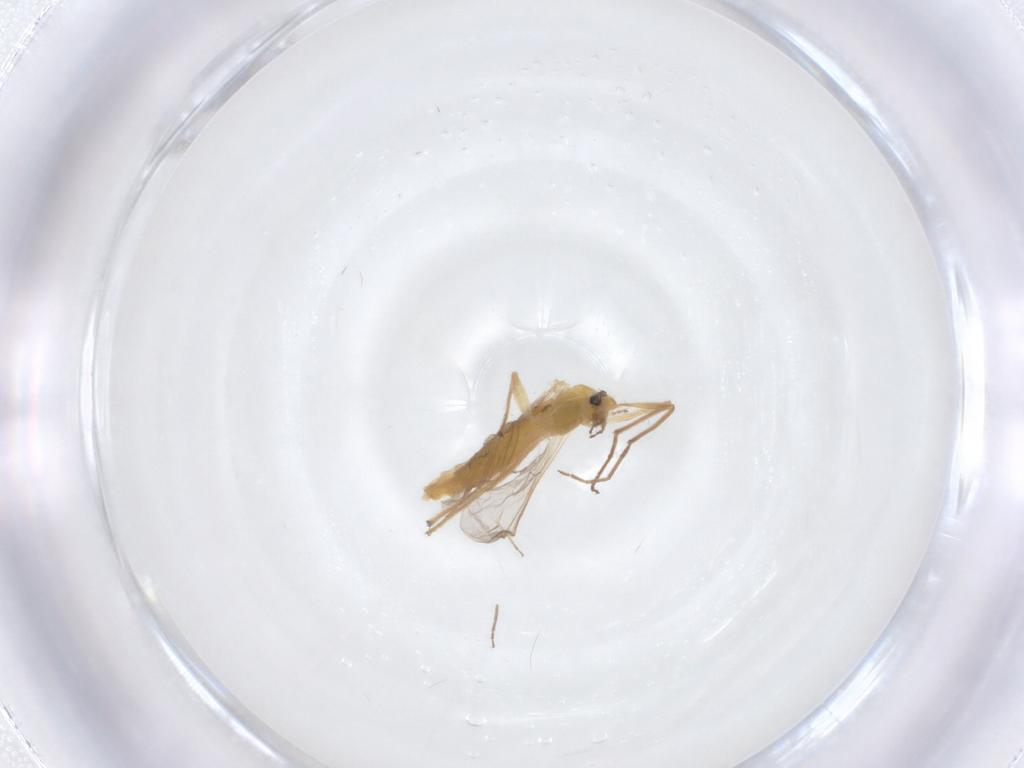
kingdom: Animalia
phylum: Arthropoda
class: Insecta
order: Diptera
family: Chironomidae
